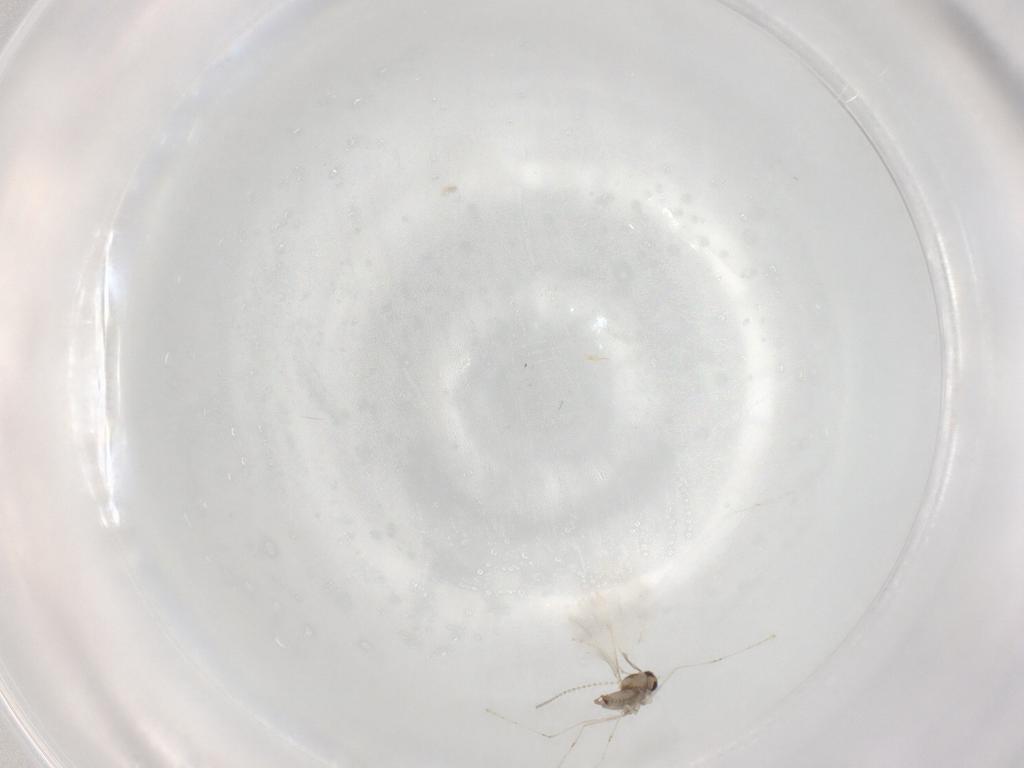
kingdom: Animalia
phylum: Arthropoda
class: Insecta
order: Diptera
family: Cecidomyiidae
